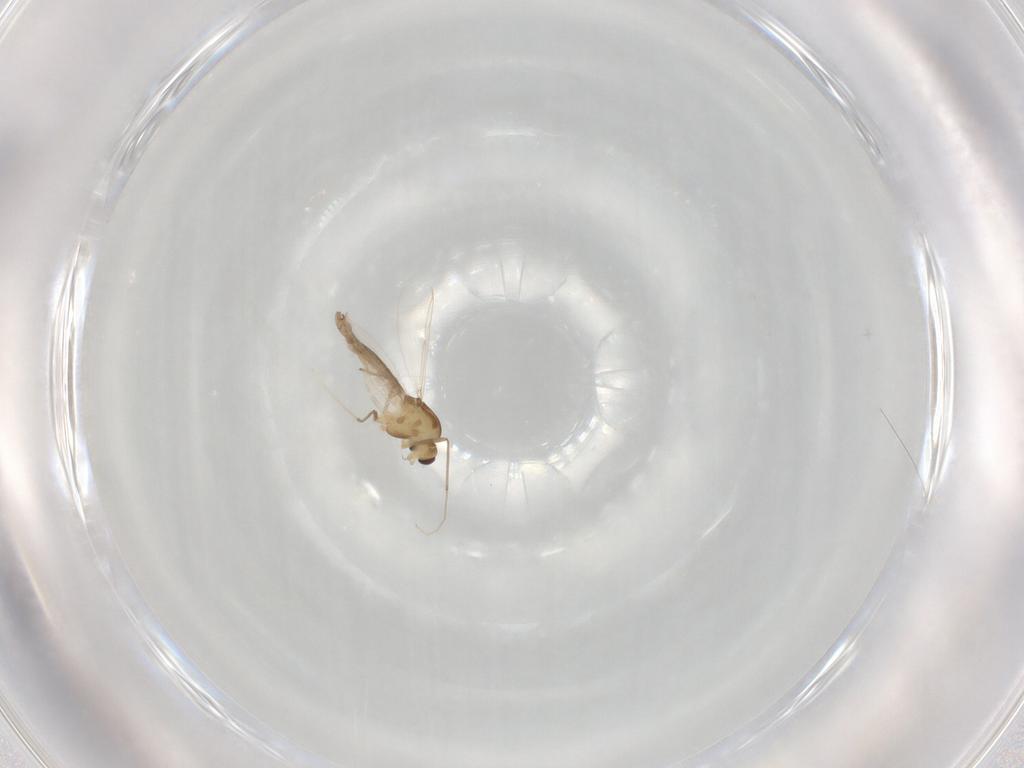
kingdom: Animalia
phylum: Arthropoda
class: Insecta
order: Diptera
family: Chironomidae
